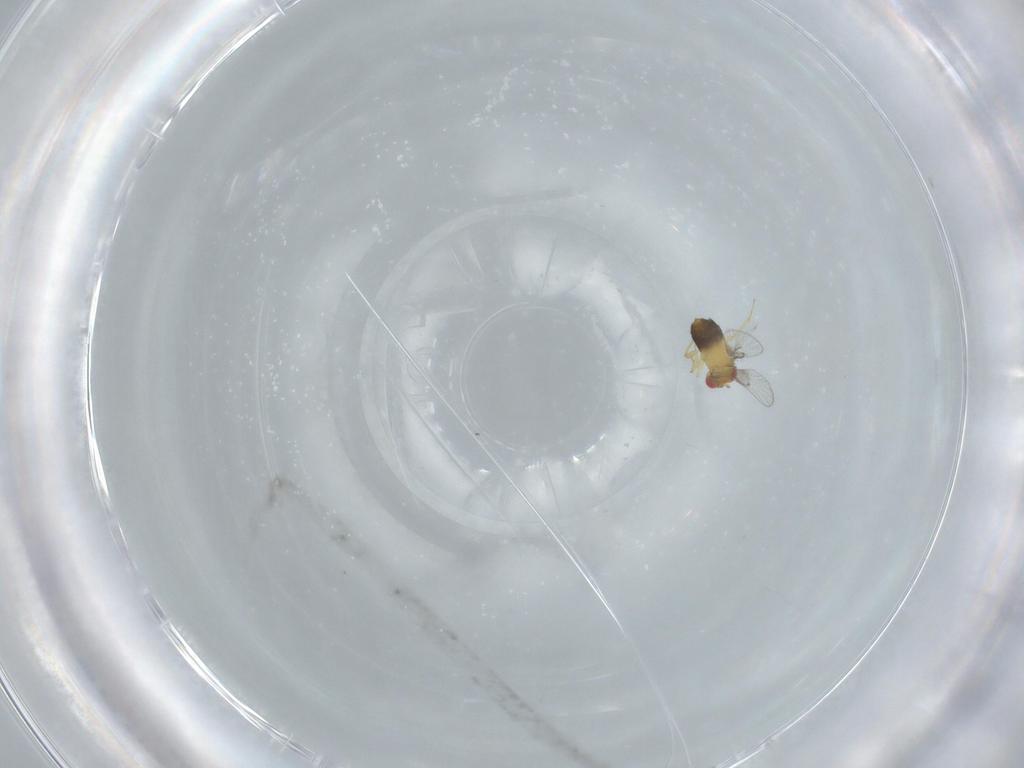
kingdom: Animalia
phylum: Arthropoda
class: Insecta
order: Hymenoptera
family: Trichogrammatidae
